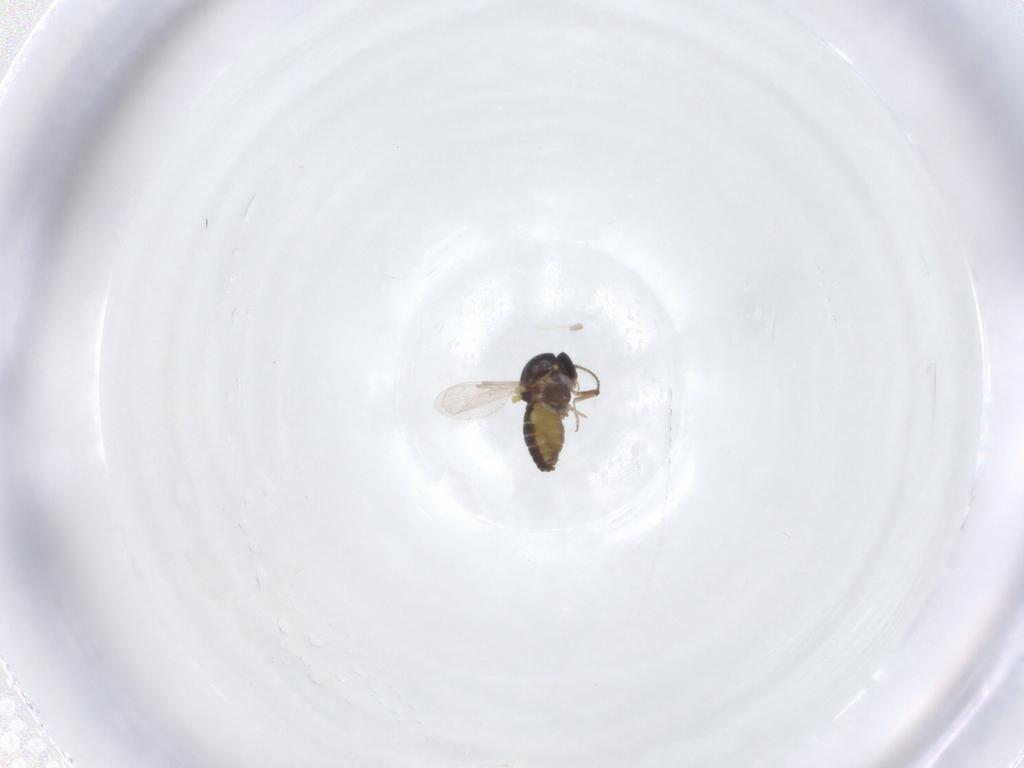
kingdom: Animalia
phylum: Arthropoda
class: Insecta
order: Diptera
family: Ceratopogonidae
